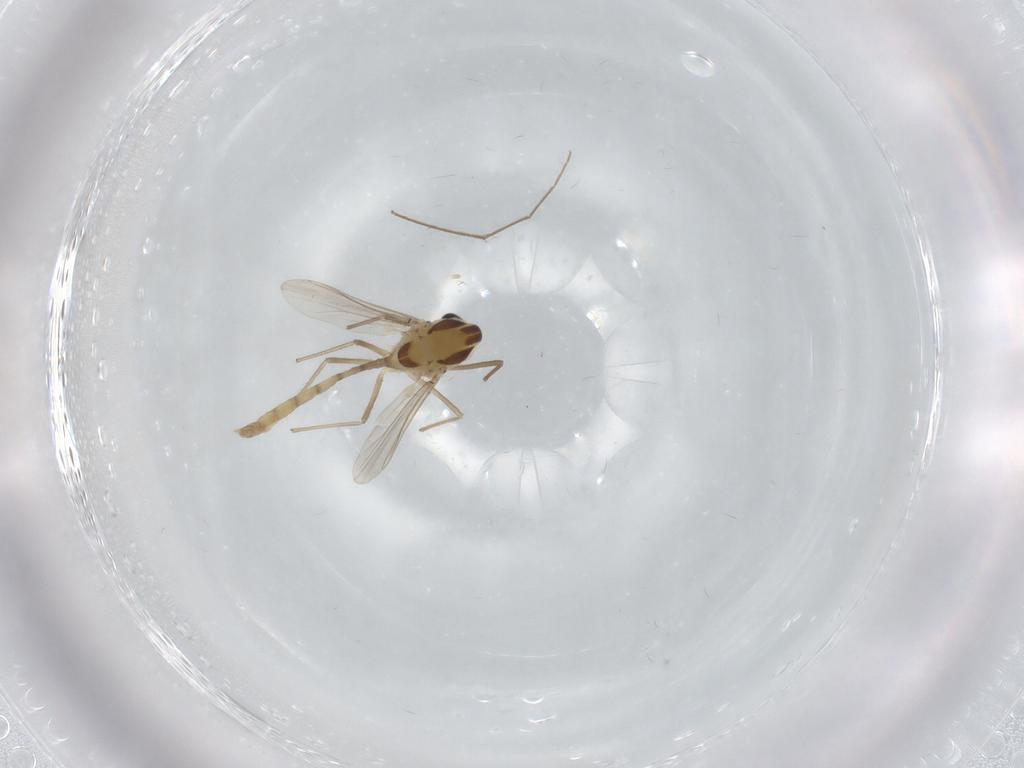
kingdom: Animalia
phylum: Arthropoda
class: Insecta
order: Diptera
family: Chironomidae
